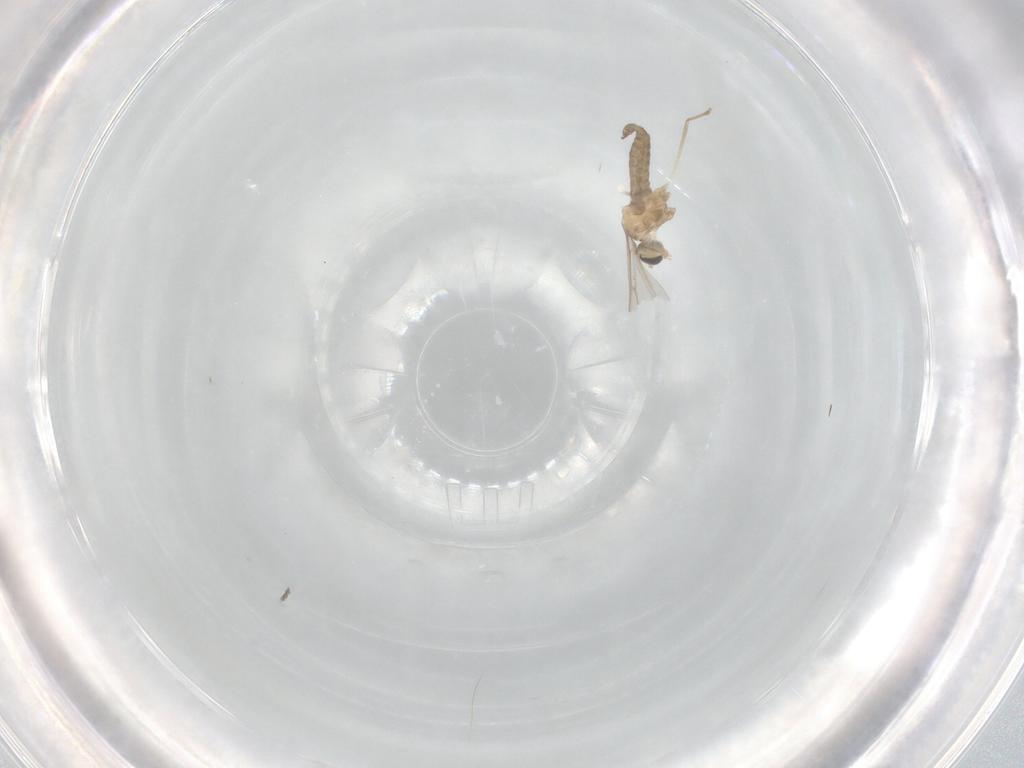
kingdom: Animalia
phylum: Arthropoda
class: Insecta
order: Diptera
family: Cecidomyiidae
